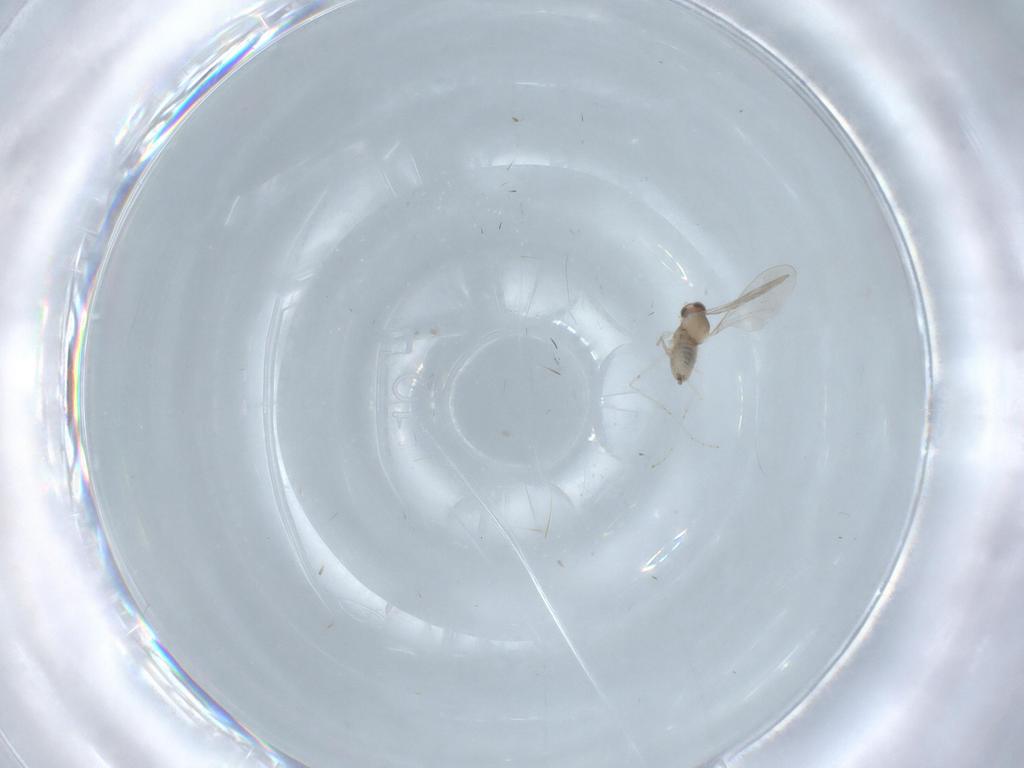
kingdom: Animalia
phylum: Arthropoda
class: Insecta
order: Diptera
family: Cecidomyiidae
